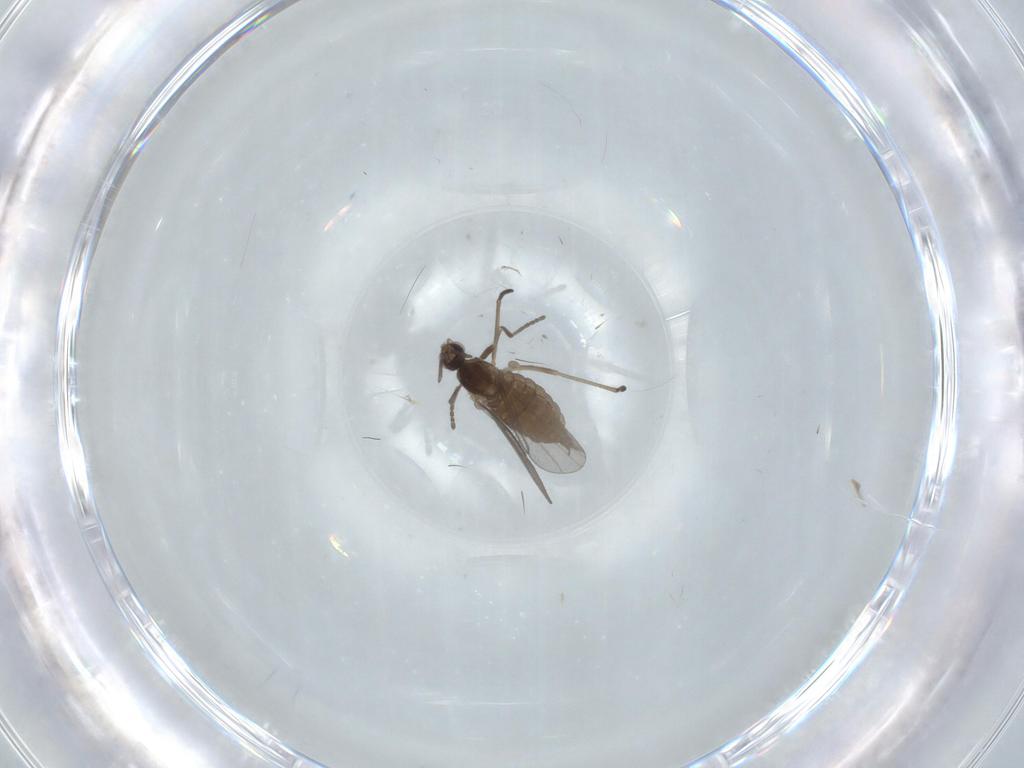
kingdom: Animalia
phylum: Arthropoda
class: Insecta
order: Diptera
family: Cecidomyiidae
